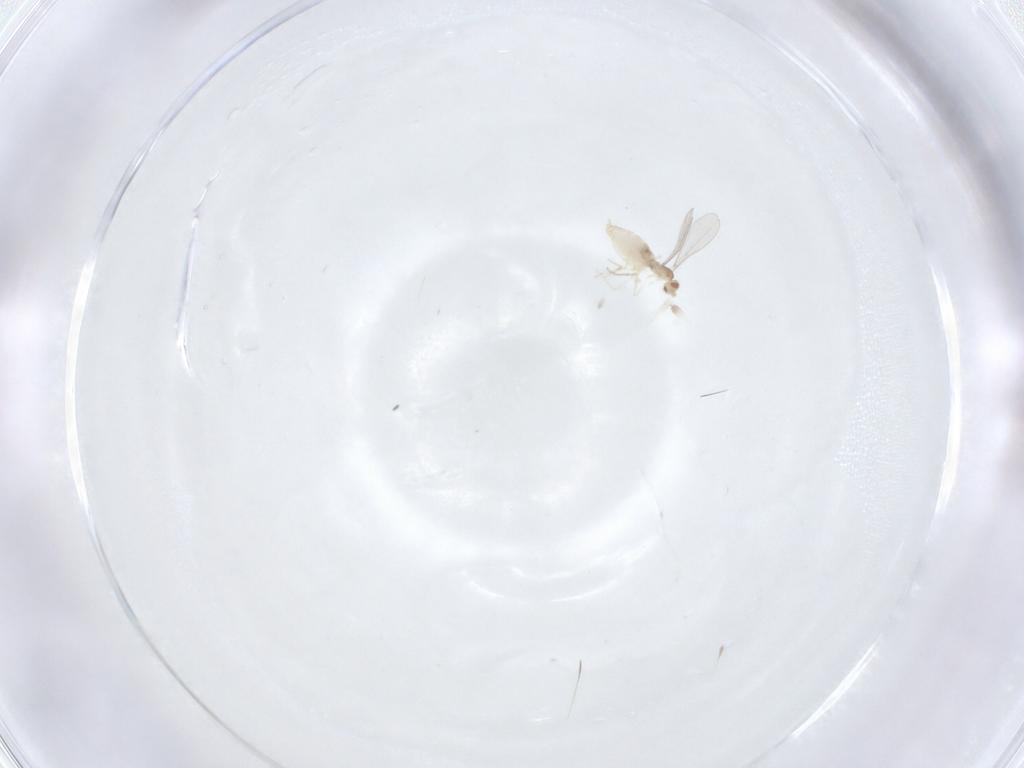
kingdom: Animalia
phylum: Arthropoda
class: Insecta
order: Diptera
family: Cecidomyiidae
